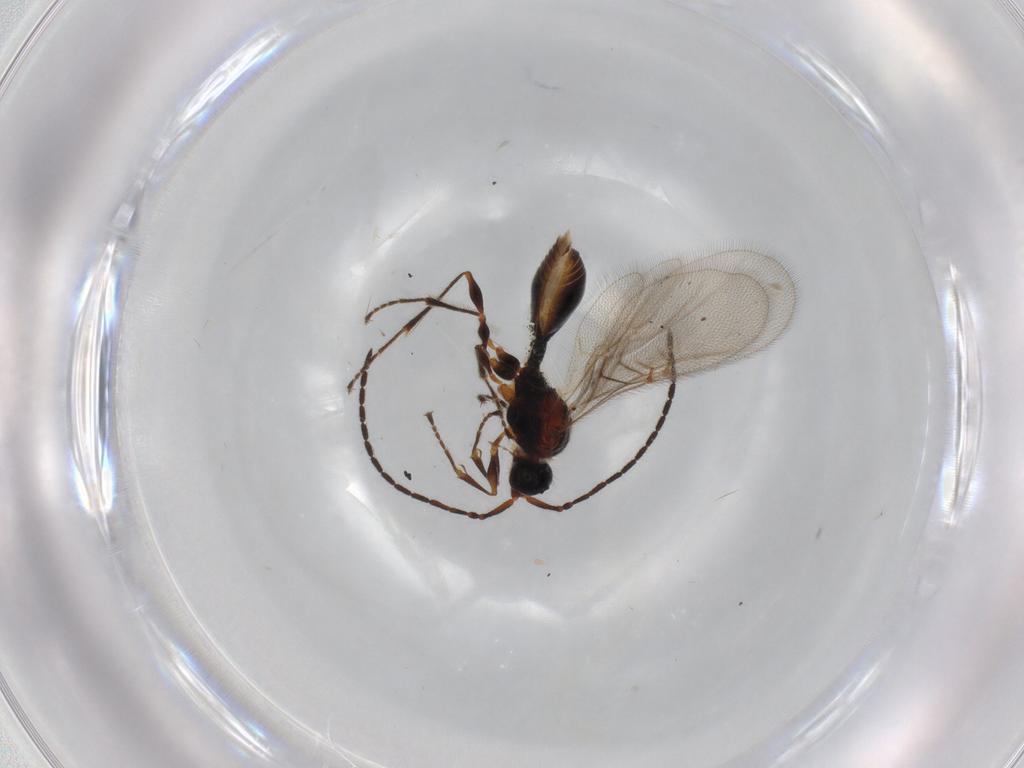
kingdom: Animalia
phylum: Arthropoda
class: Insecta
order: Hymenoptera
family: Diapriidae
